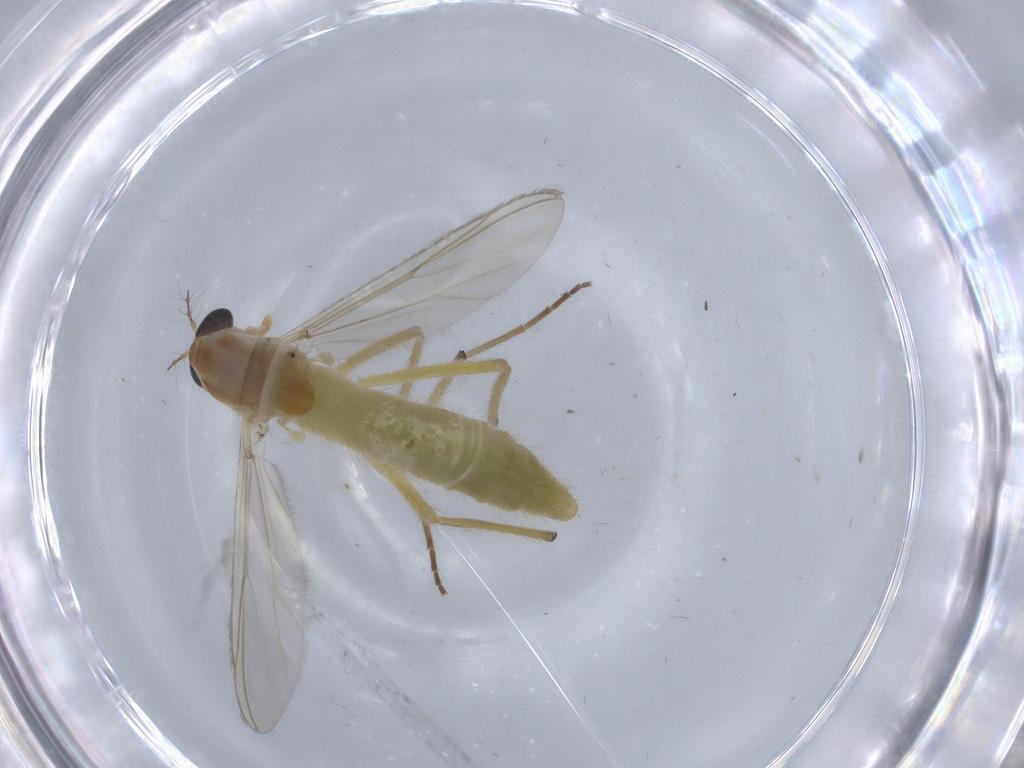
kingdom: Animalia
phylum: Arthropoda
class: Insecta
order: Diptera
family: Chironomidae
